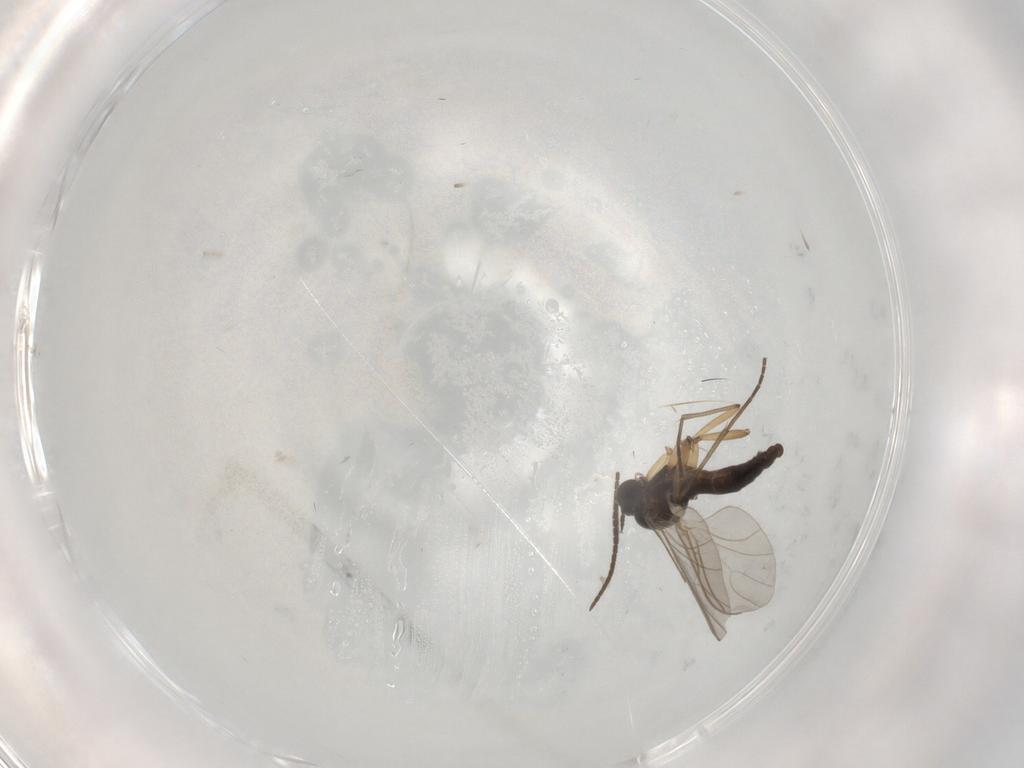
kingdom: Animalia
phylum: Arthropoda
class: Insecta
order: Diptera
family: Sciaridae
